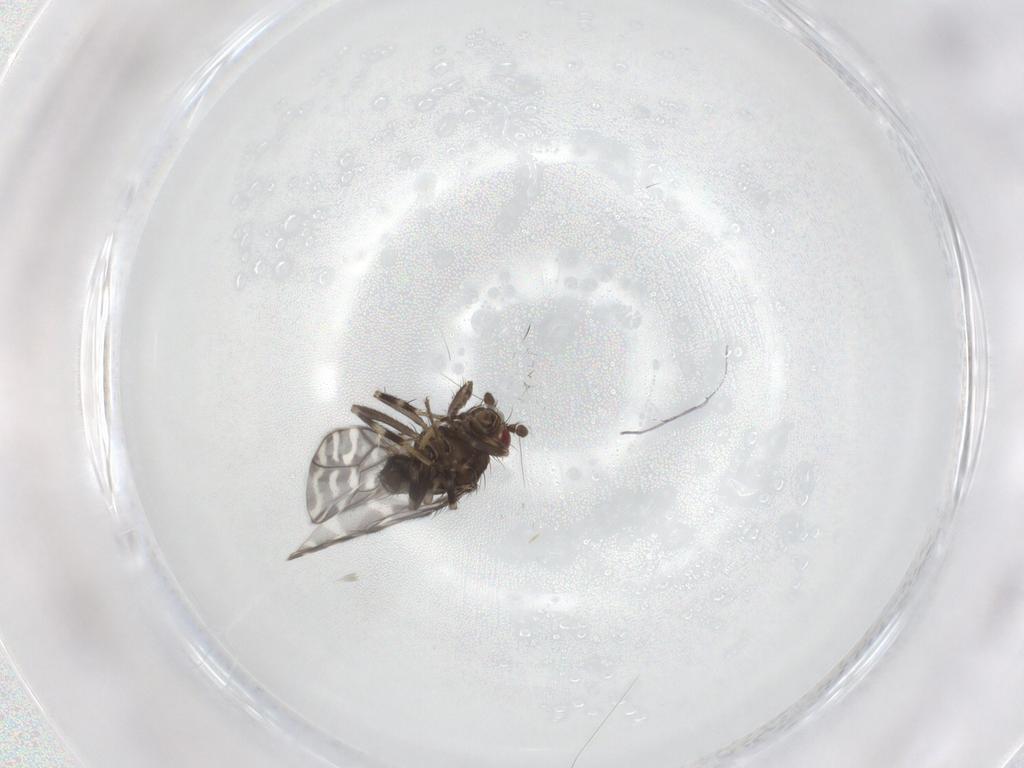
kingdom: Animalia
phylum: Arthropoda
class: Insecta
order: Diptera
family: Sphaeroceridae
